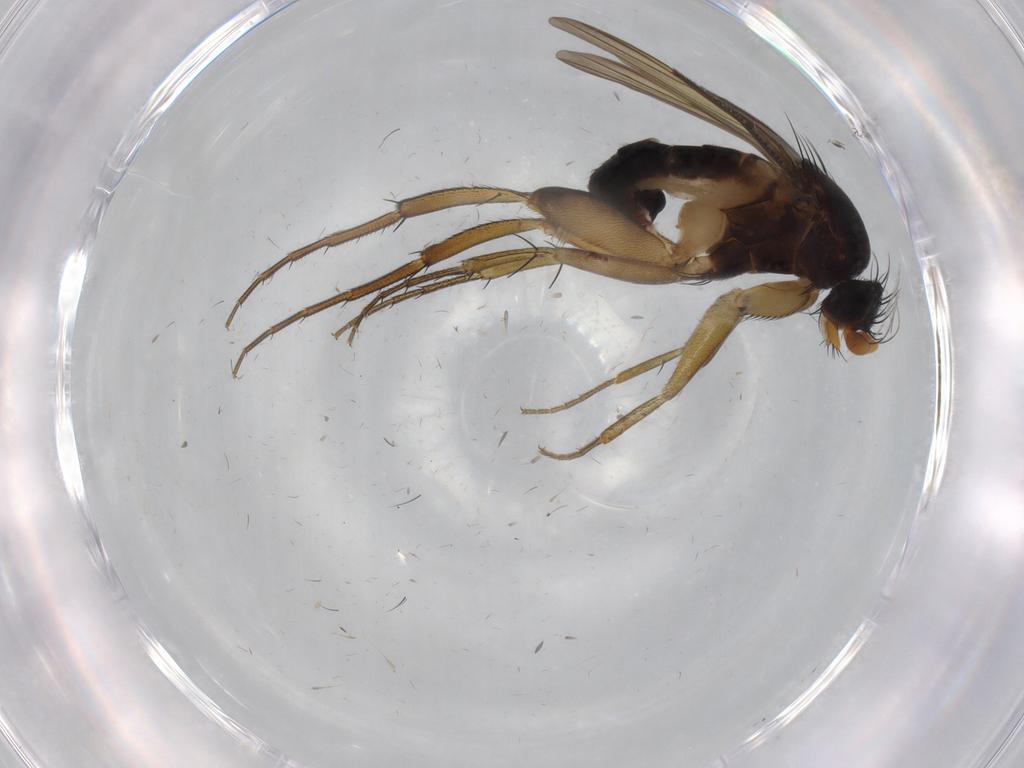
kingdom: Animalia
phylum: Arthropoda
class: Insecta
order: Diptera
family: Phoridae
